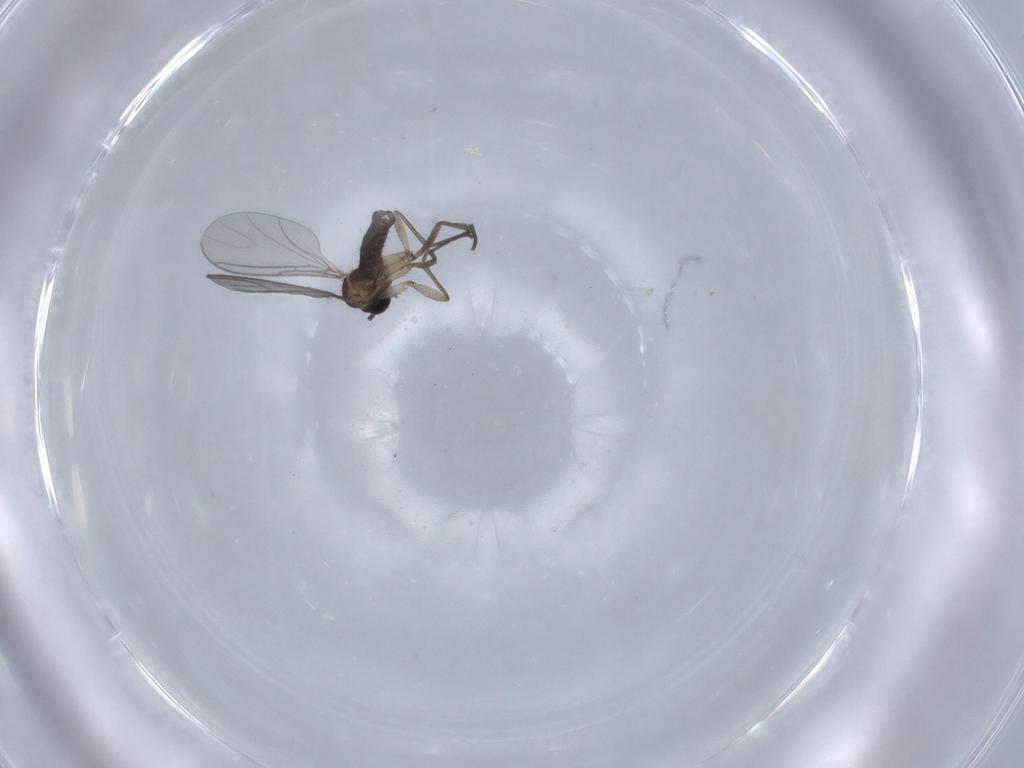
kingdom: Animalia
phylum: Arthropoda
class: Insecta
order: Diptera
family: Sciaridae
